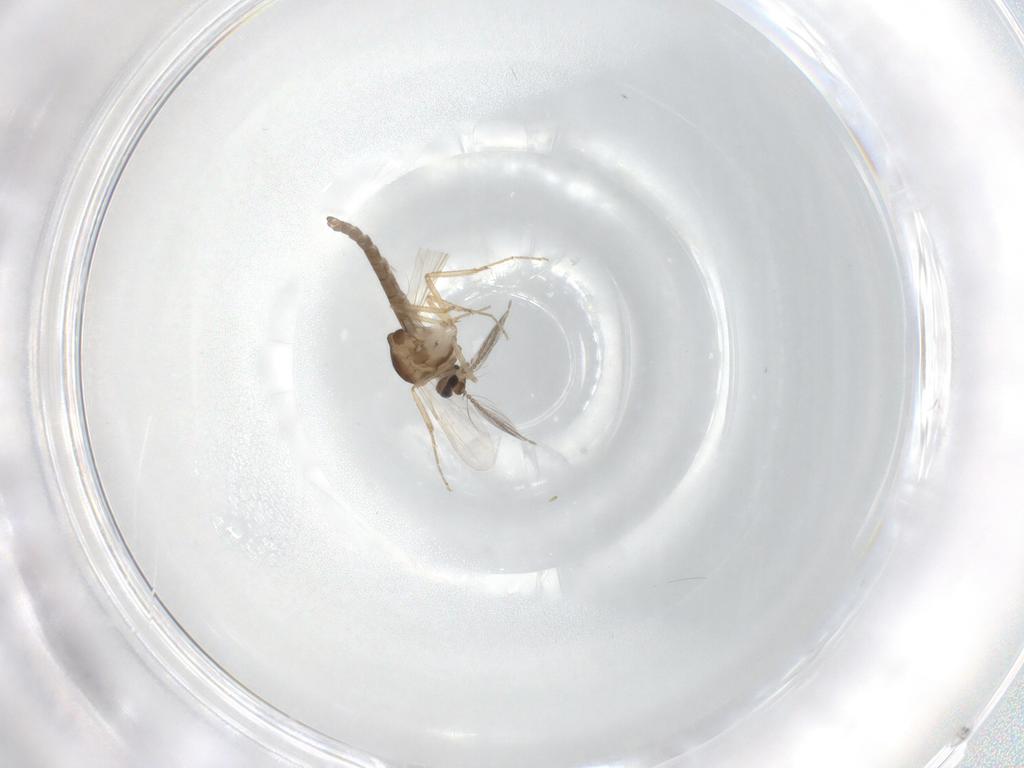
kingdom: Animalia
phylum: Arthropoda
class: Insecta
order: Diptera
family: Ceratopogonidae
